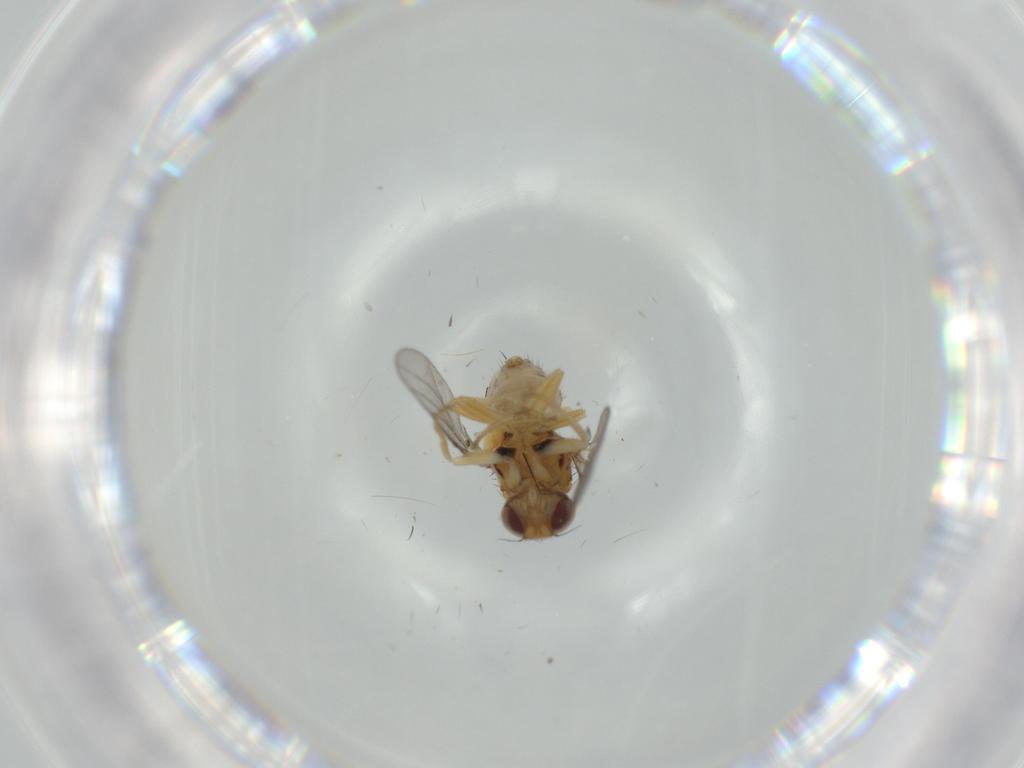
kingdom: Animalia
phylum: Arthropoda
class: Insecta
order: Diptera
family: Chloropidae
